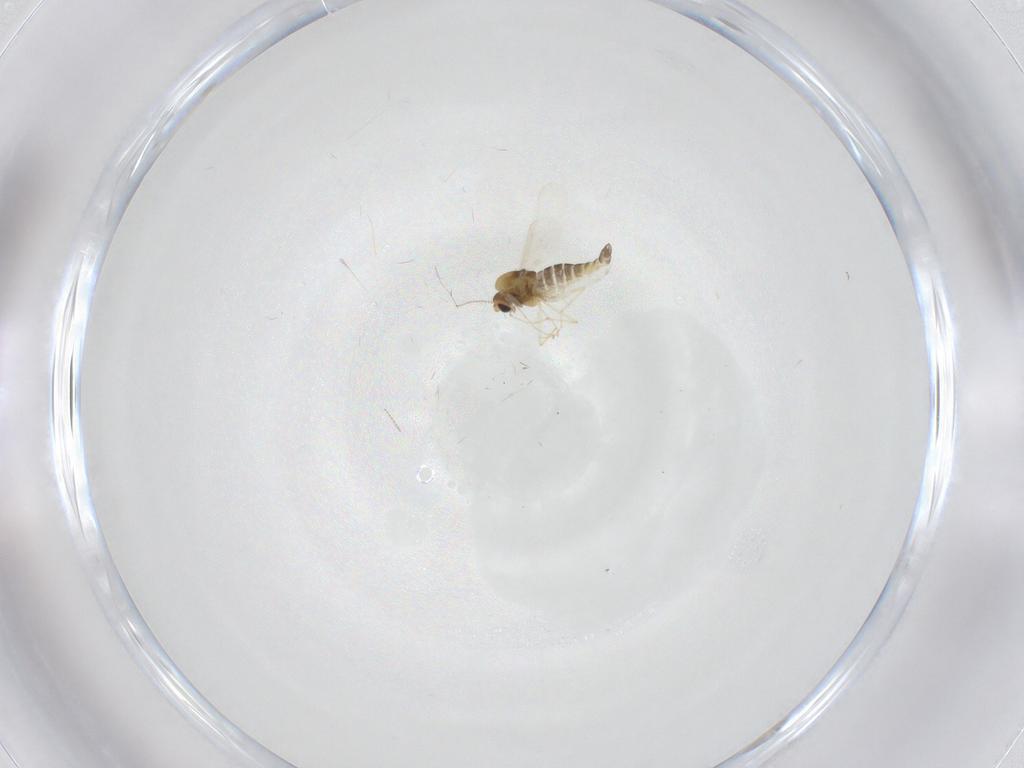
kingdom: Animalia
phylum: Arthropoda
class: Insecta
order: Diptera
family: Chironomidae
